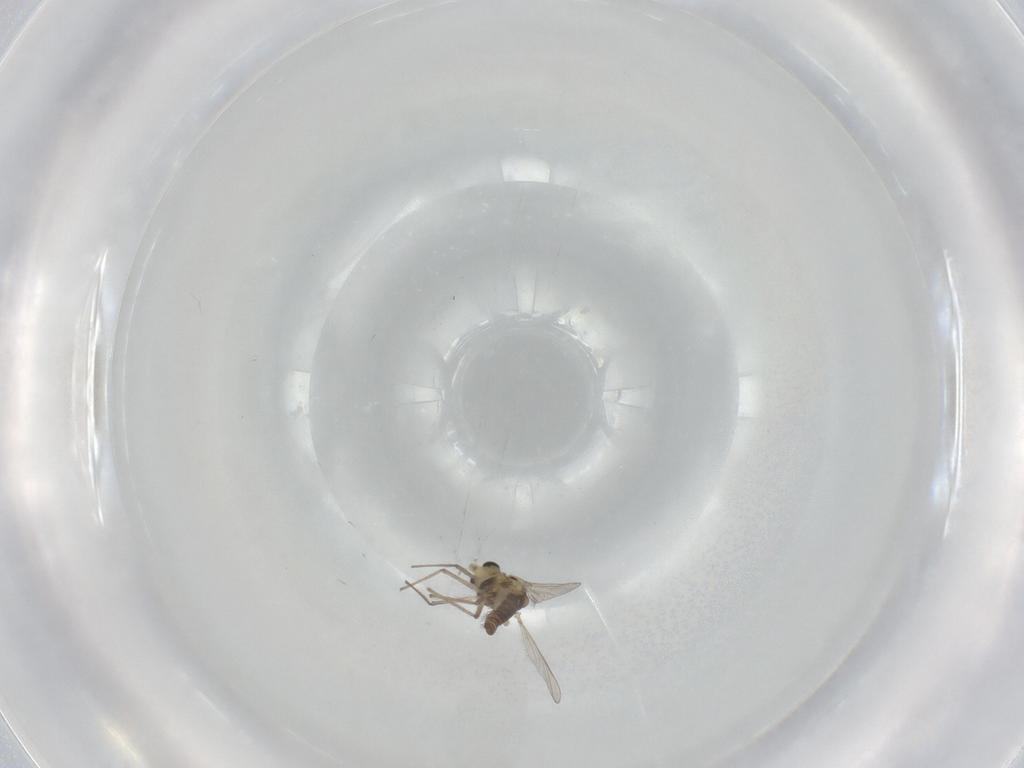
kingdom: Animalia
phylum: Arthropoda
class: Insecta
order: Diptera
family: Chironomidae
